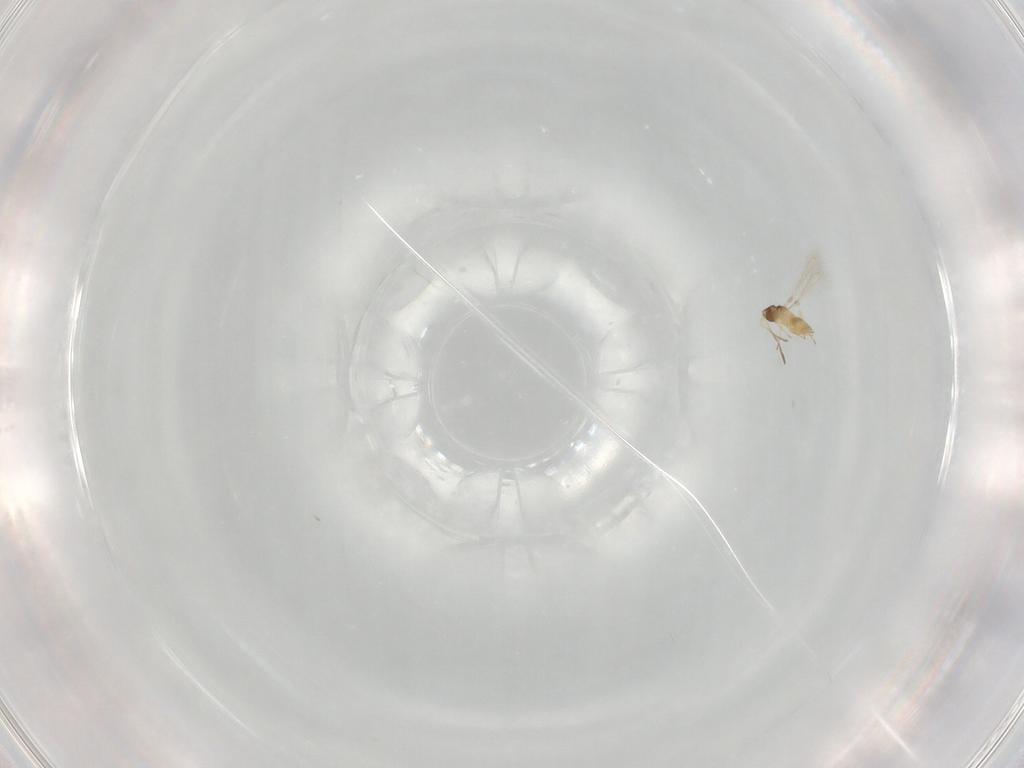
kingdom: Animalia
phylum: Arthropoda
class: Insecta
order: Hymenoptera
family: Mymaridae
